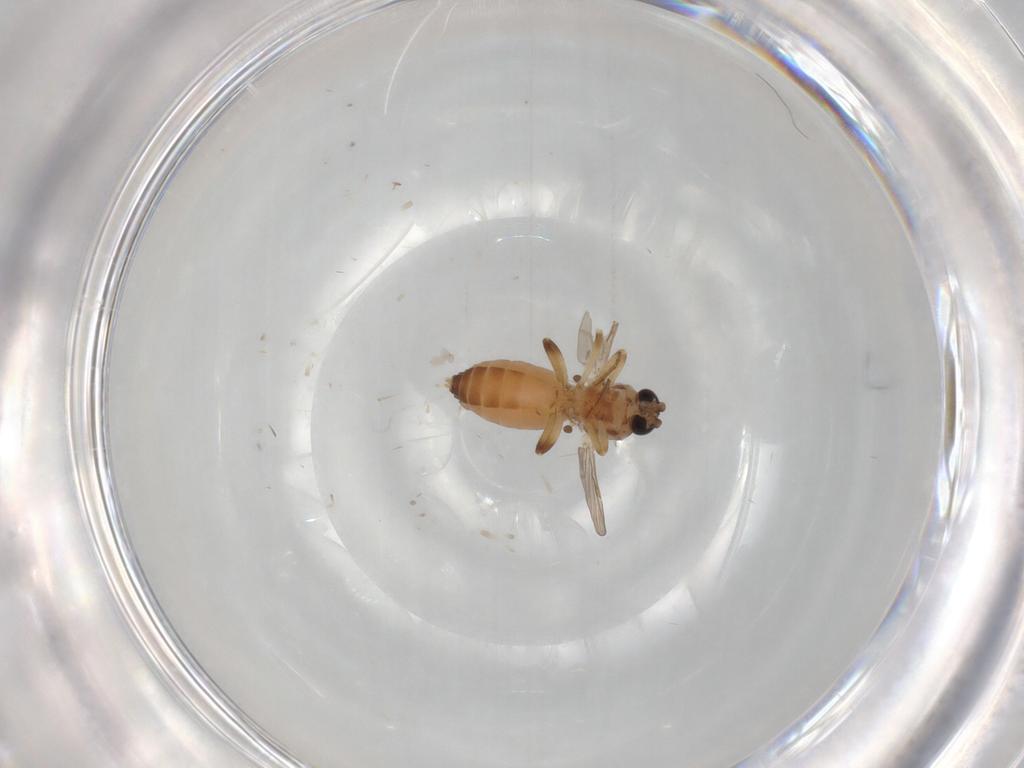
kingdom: Animalia
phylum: Arthropoda
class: Insecta
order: Diptera
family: Ceratopogonidae
